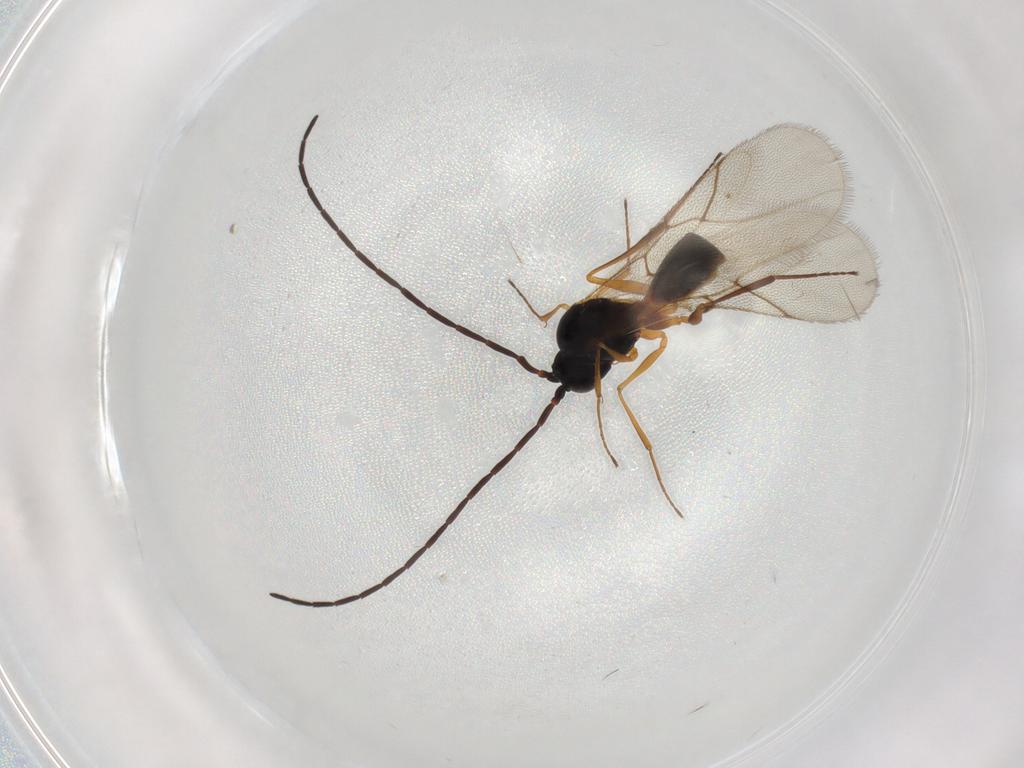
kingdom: Animalia
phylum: Arthropoda
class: Insecta
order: Hymenoptera
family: Figitidae
